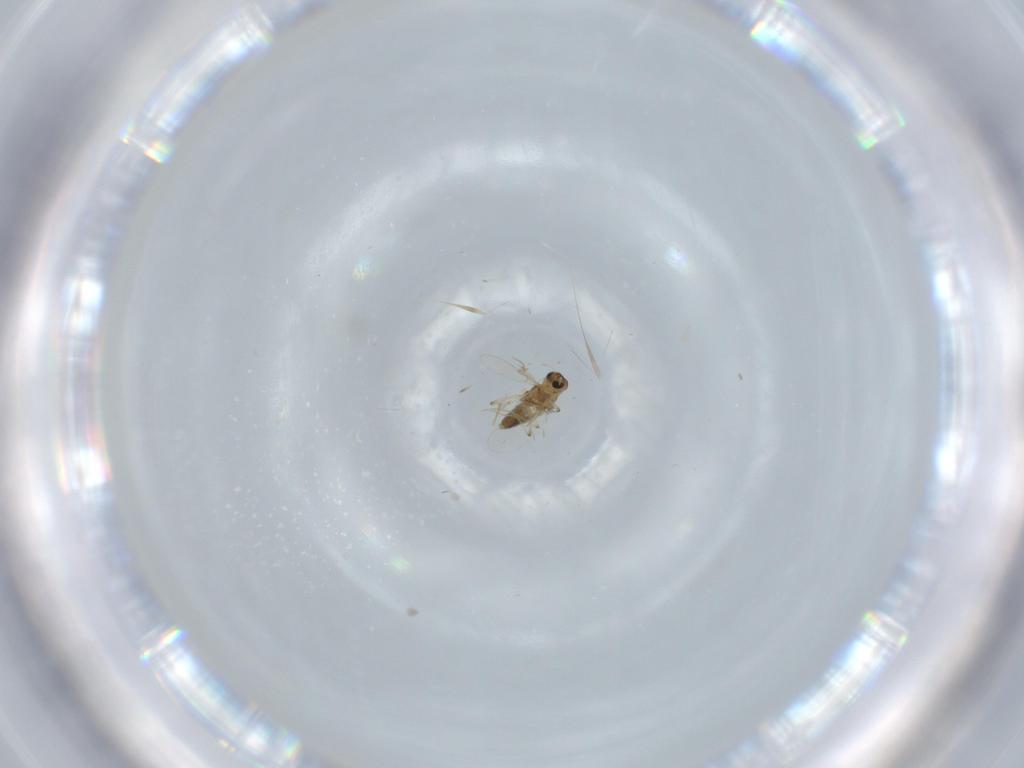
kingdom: Animalia
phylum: Arthropoda
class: Insecta
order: Diptera
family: Chironomidae
